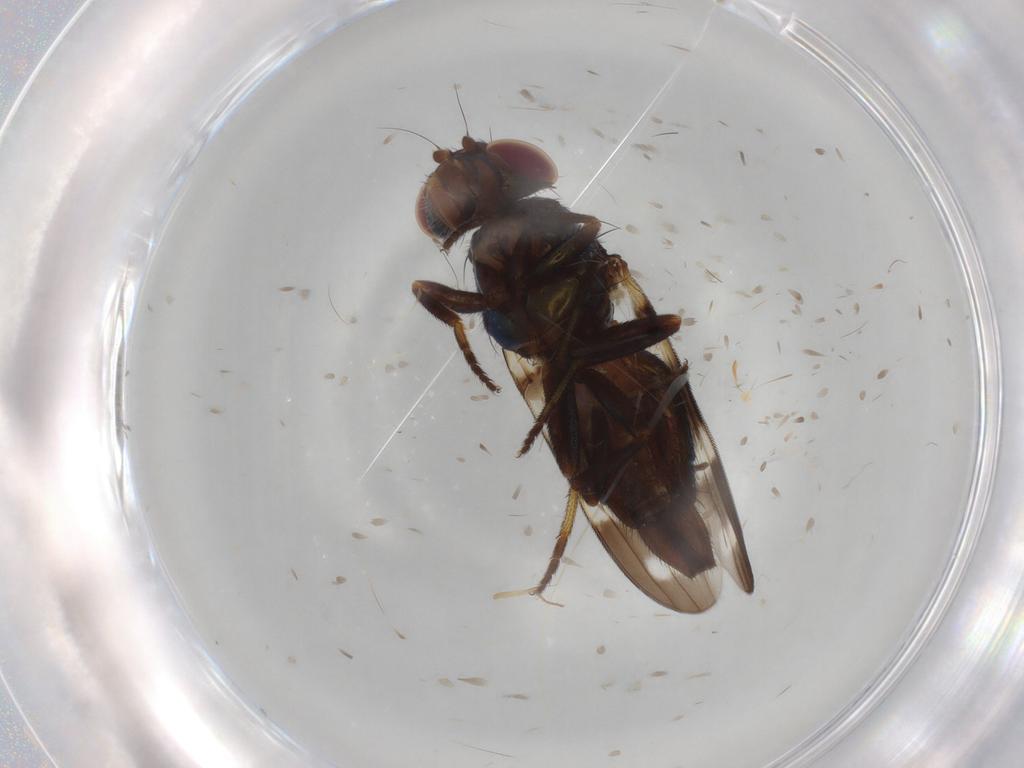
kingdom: Animalia
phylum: Arthropoda
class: Insecta
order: Diptera
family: Ulidiidae
